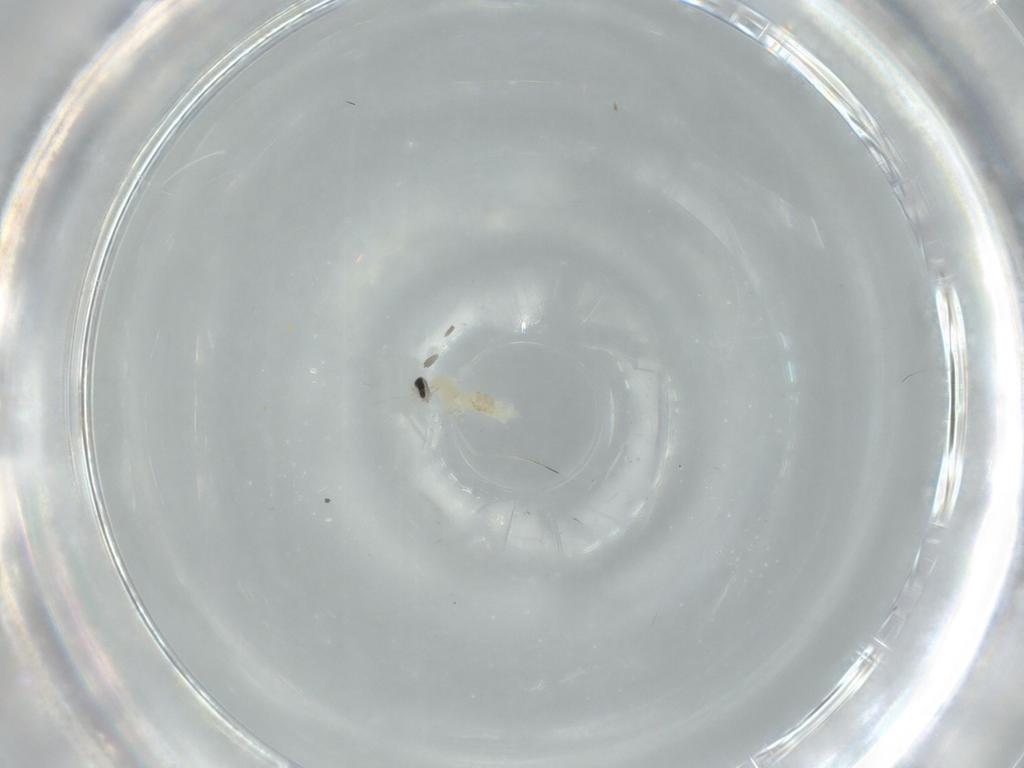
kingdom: Animalia
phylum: Arthropoda
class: Insecta
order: Diptera
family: Cecidomyiidae
